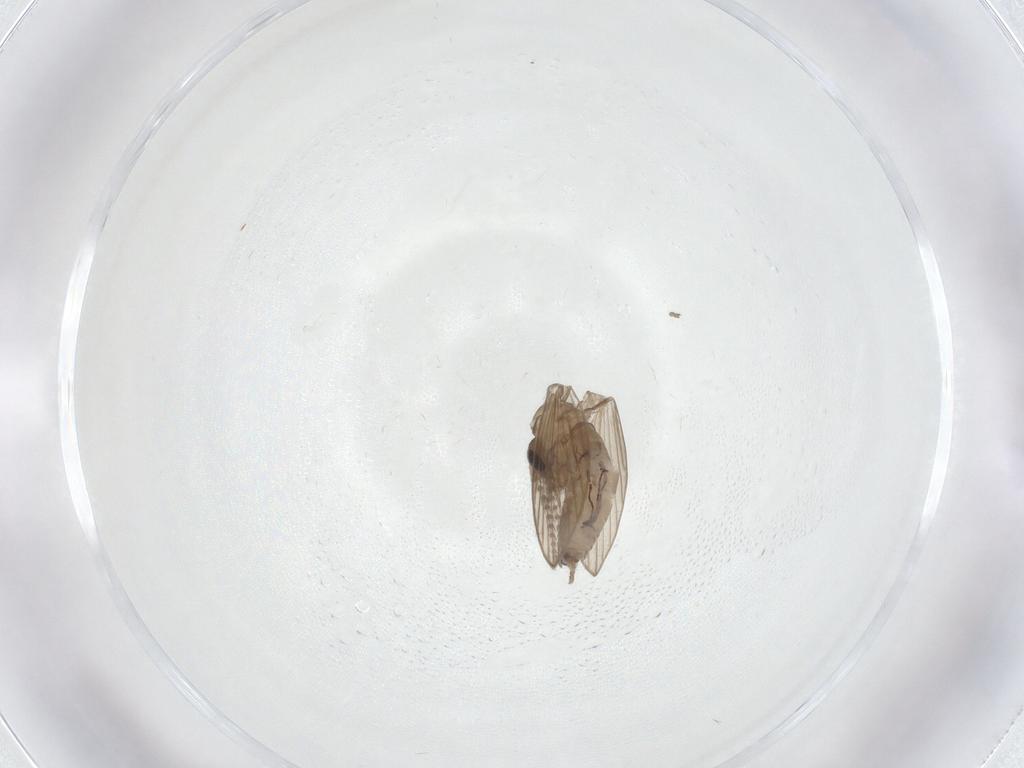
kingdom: Animalia
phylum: Arthropoda
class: Insecta
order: Diptera
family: Psychodidae
